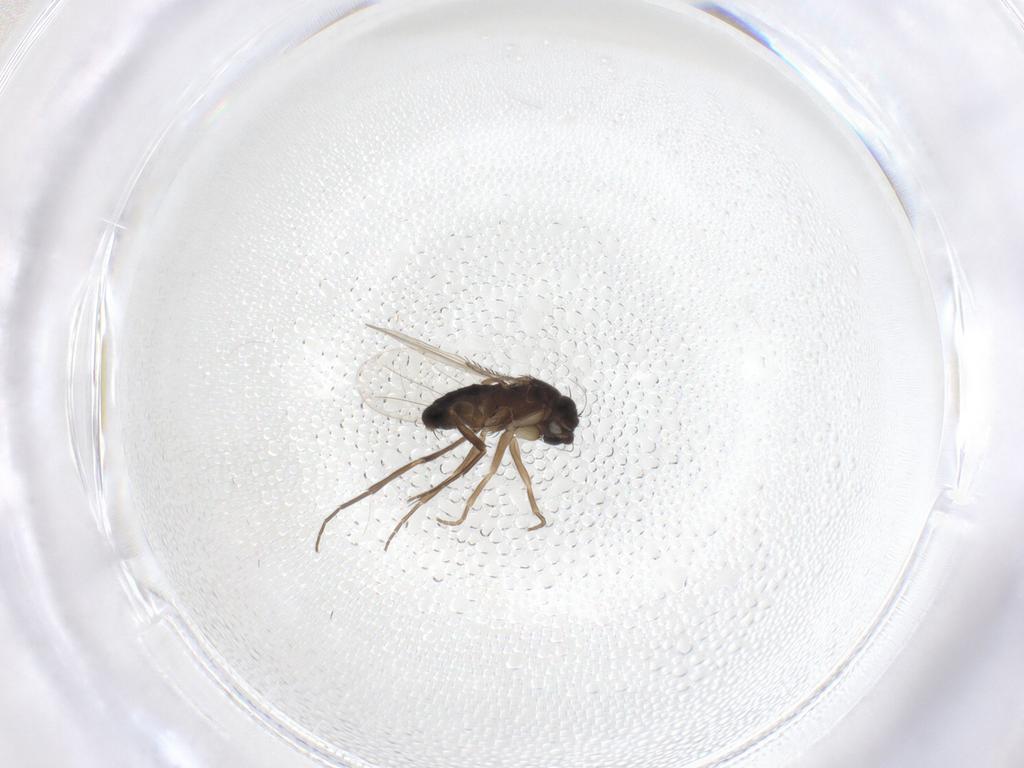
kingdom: Animalia
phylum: Arthropoda
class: Insecta
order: Diptera
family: Phoridae
